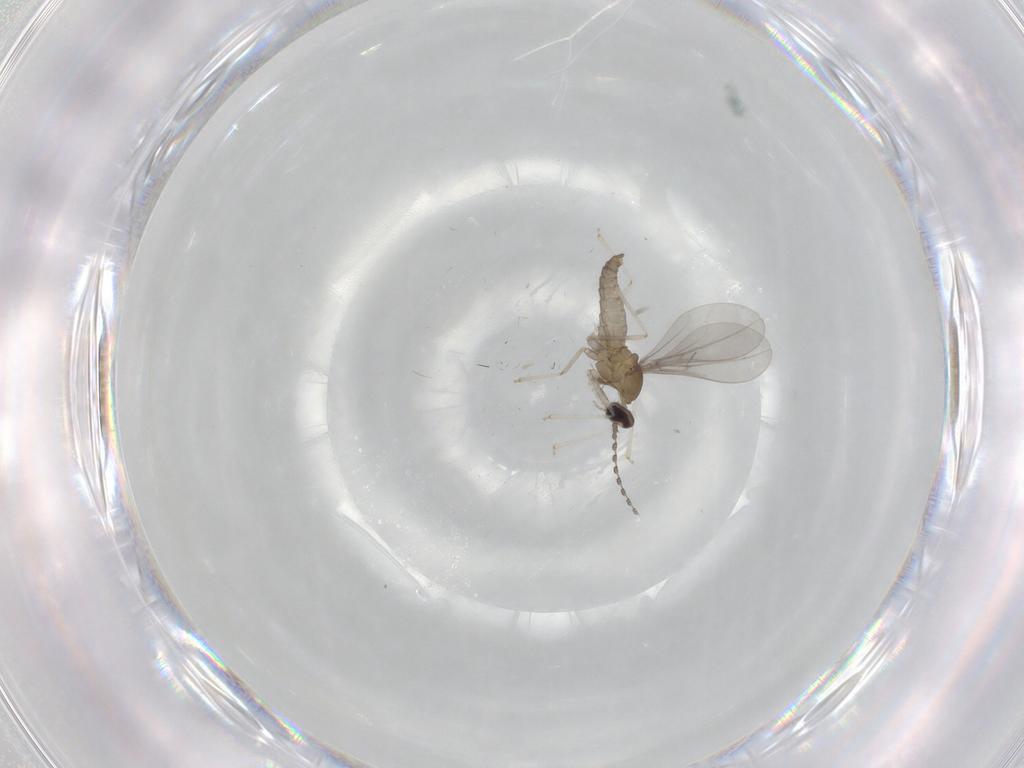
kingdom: Animalia
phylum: Arthropoda
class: Insecta
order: Diptera
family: Cecidomyiidae
